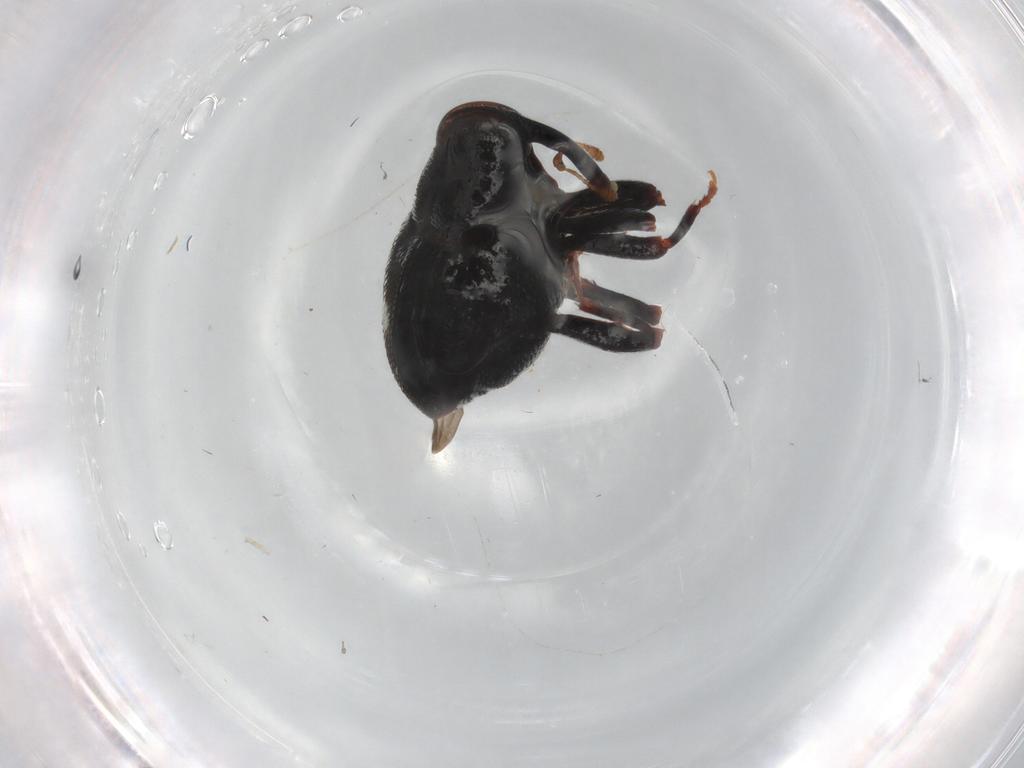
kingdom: Animalia
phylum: Arthropoda
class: Insecta
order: Coleoptera
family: Curculionidae
